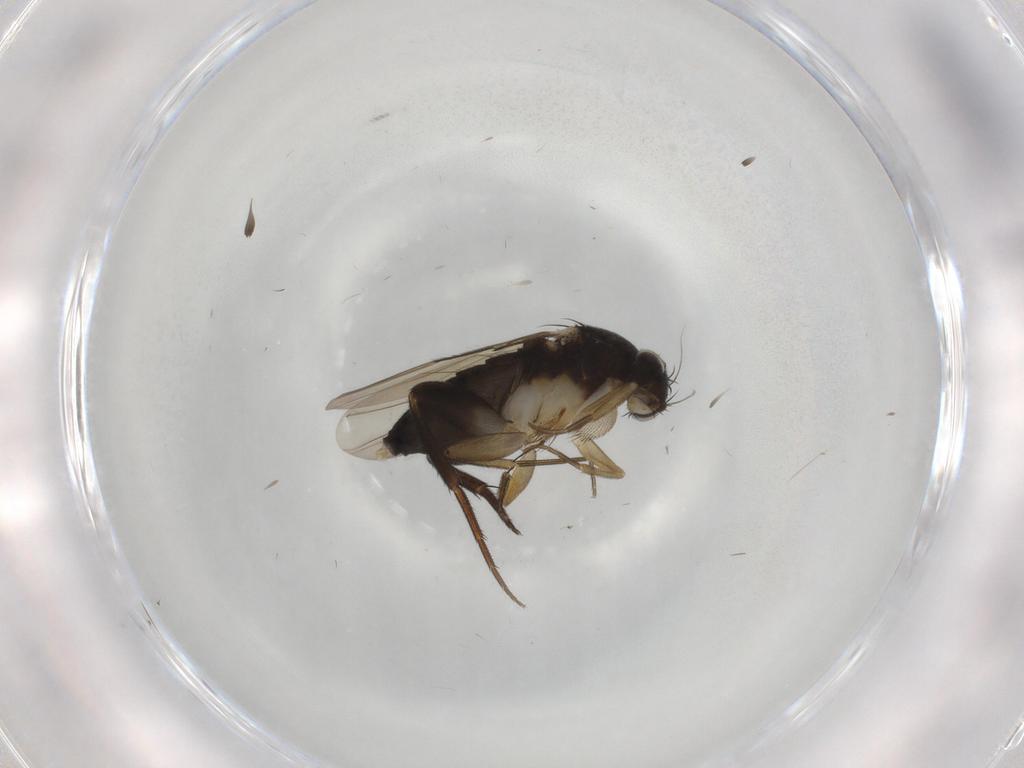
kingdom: Animalia
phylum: Arthropoda
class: Insecta
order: Diptera
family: Phoridae
